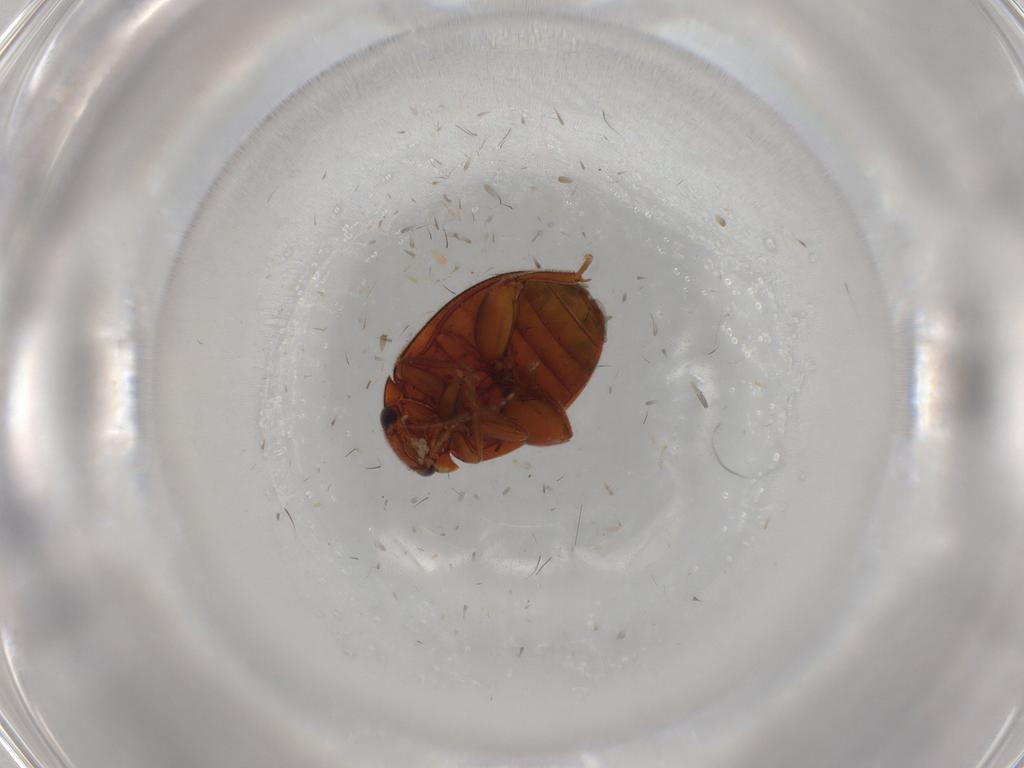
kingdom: Animalia
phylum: Arthropoda
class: Insecta
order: Coleoptera
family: Scirtidae
